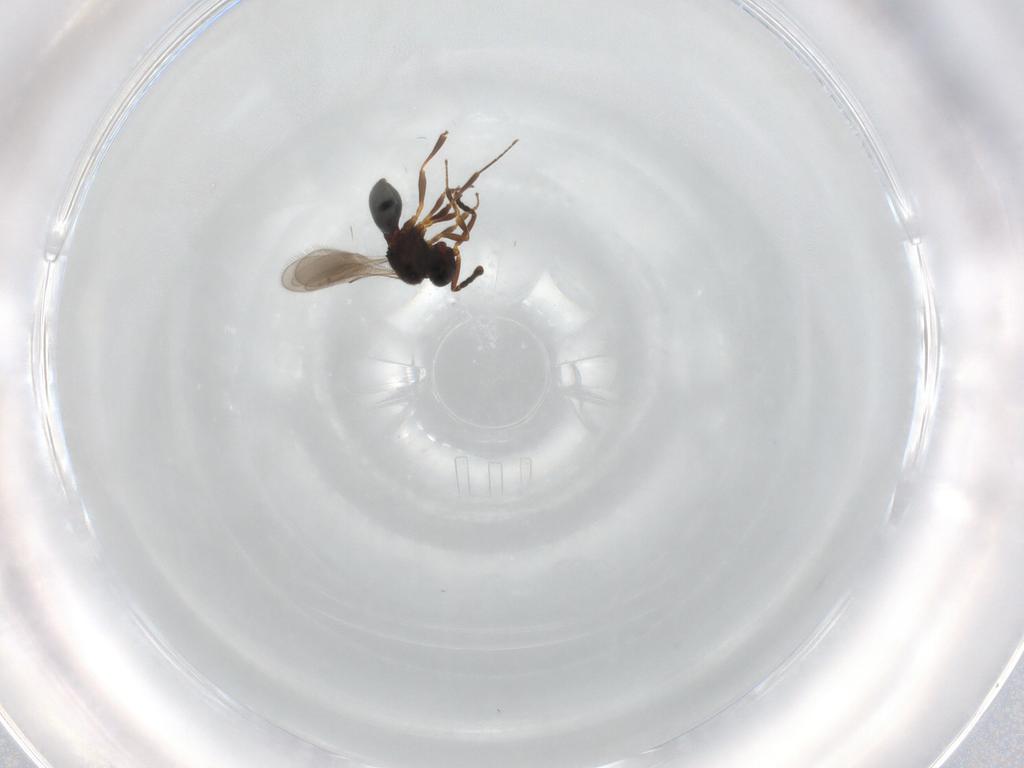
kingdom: Animalia
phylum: Arthropoda
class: Insecta
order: Hymenoptera
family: Scelionidae
